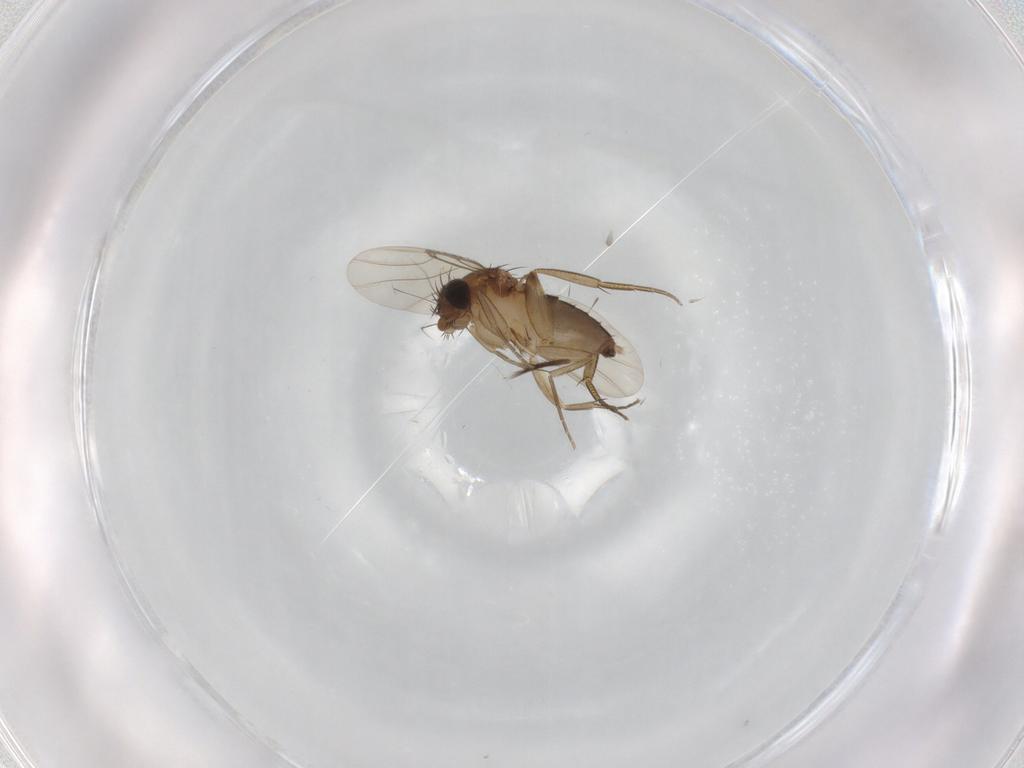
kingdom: Animalia
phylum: Arthropoda
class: Insecta
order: Diptera
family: Phoridae
